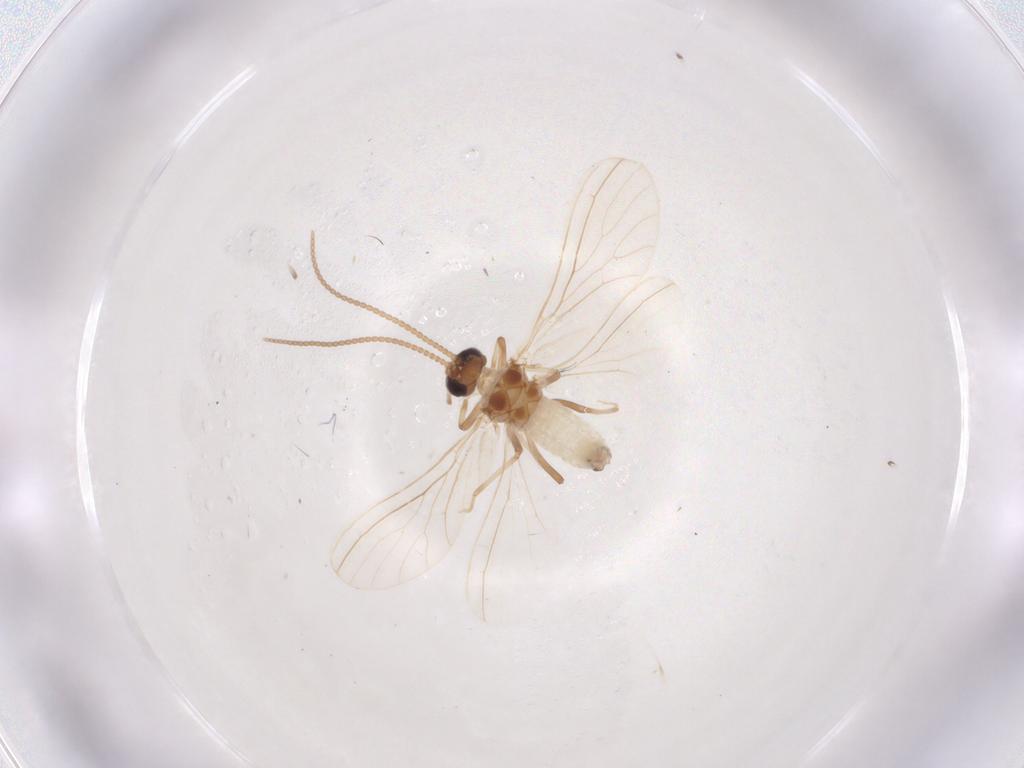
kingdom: Animalia
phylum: Arthropoda
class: Insecta
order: Neuroptera
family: Coniopterygidae
